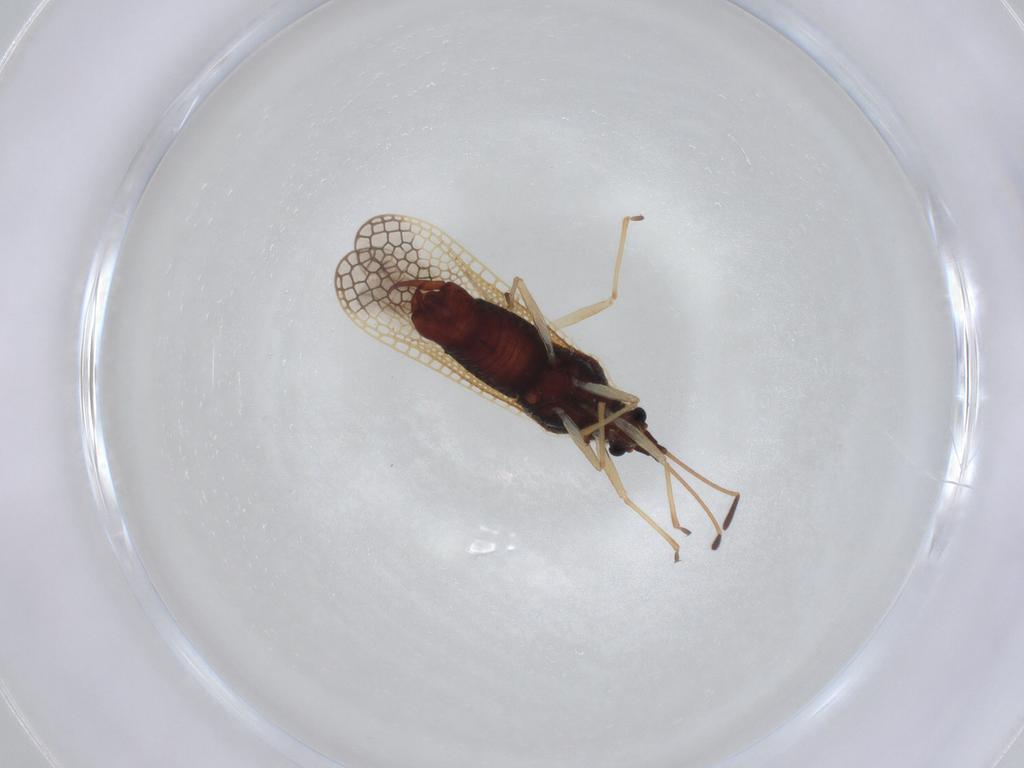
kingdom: Animalia
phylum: Arthropoda
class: Insecta
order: Hemiptera
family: Tingidae
